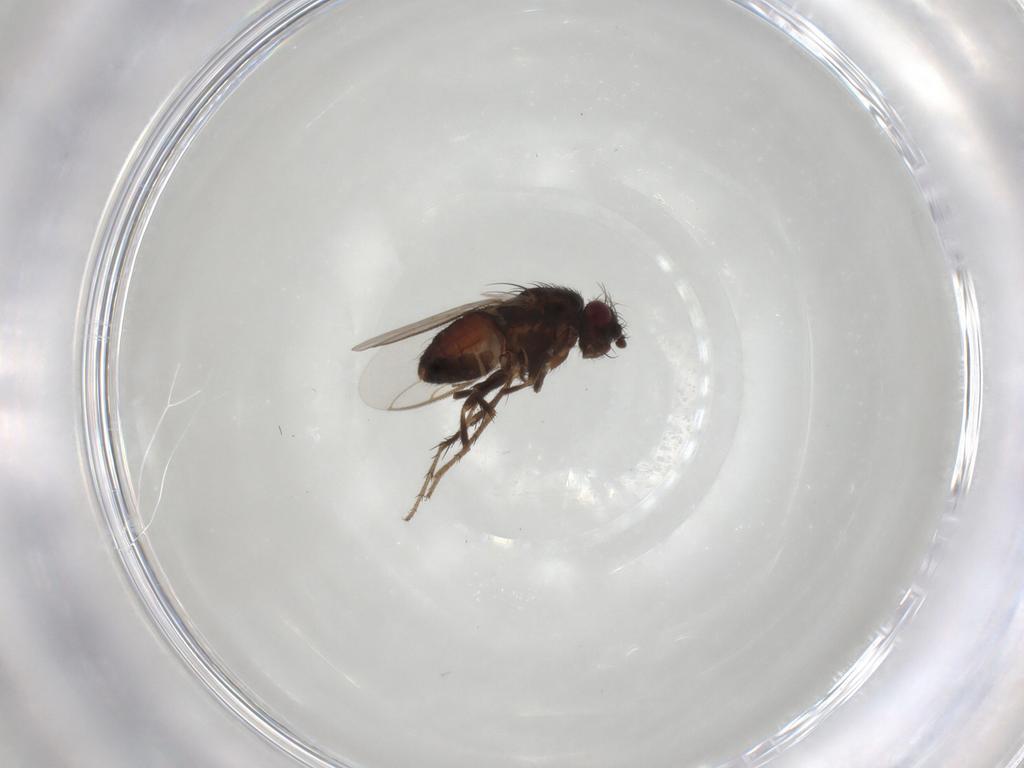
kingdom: Animalia
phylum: Arthropoda
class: Insecta
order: Diptera
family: Sphaeroceridae
